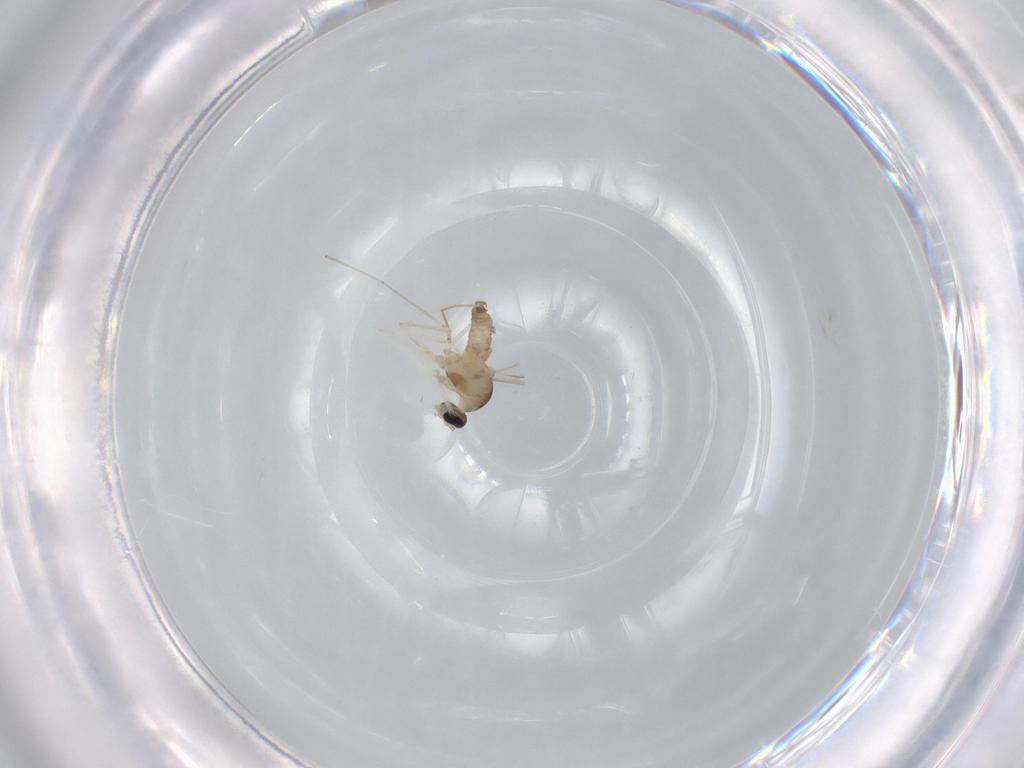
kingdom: Animalia
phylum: Arthropoda
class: Insecta
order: Diptera
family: Cecidomyiidae
